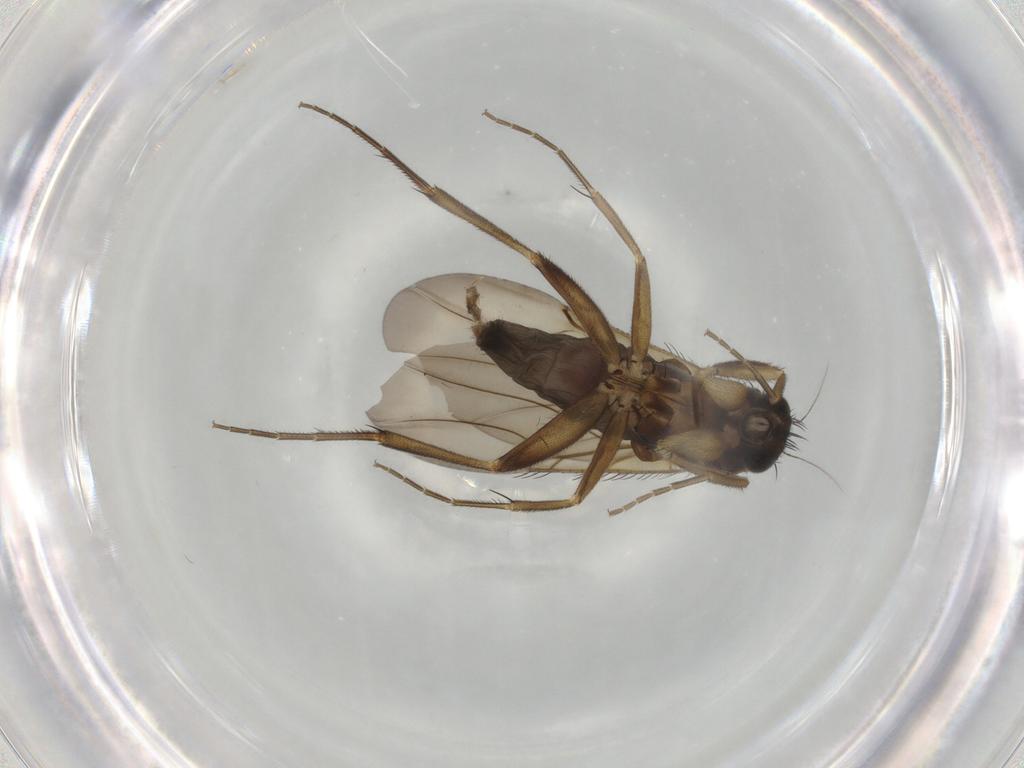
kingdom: Animalia
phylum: Arthropoda
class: Insecta
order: Diptera
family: Phoridae
